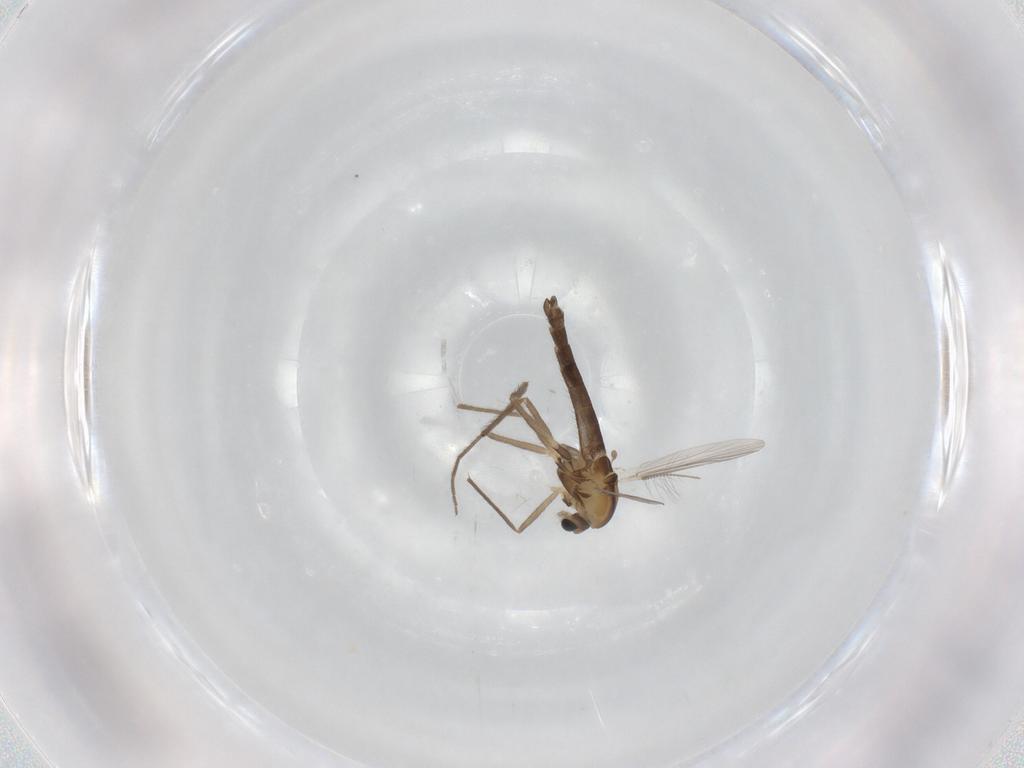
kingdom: Animalia
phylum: Arthropoda
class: Insecta
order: Diptera
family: Chironomidae
